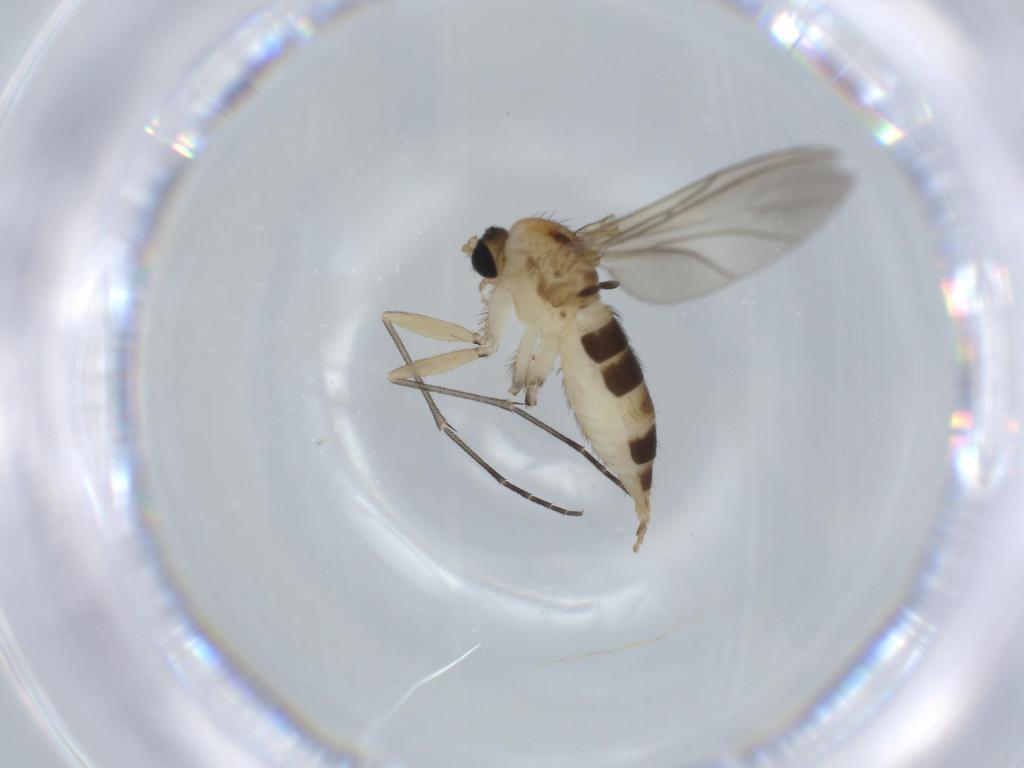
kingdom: Animalia
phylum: Arthropoda
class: Insecta
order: Diptera
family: Sciaridae
